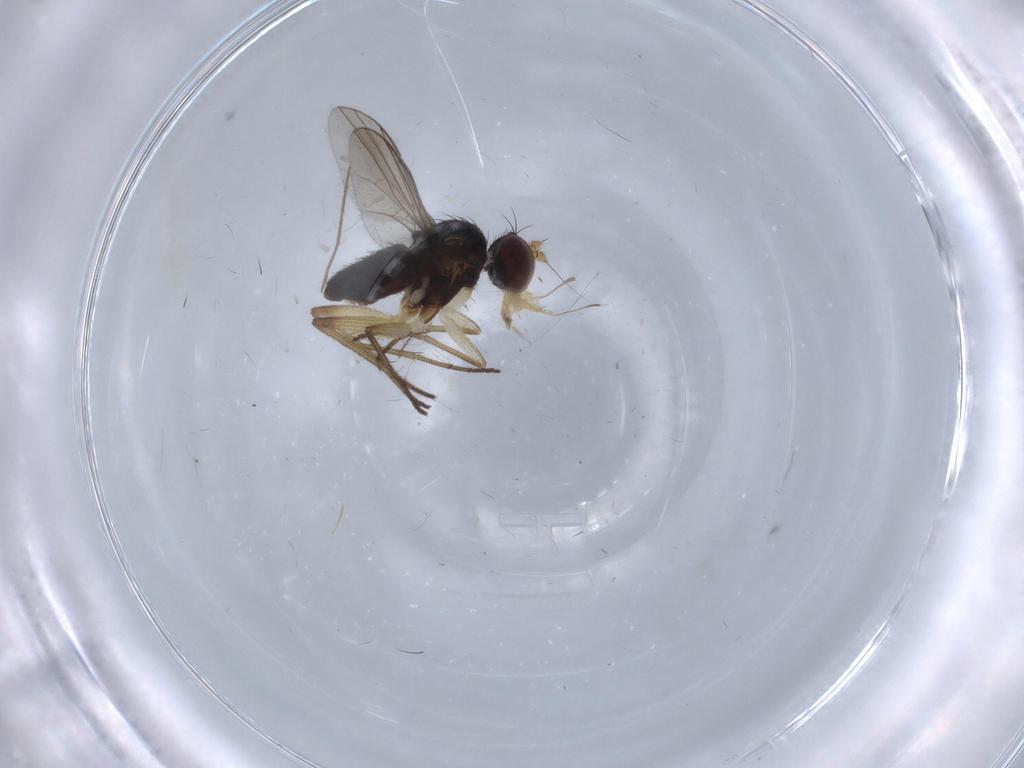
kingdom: Animalia
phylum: Arthropoda
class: Insecta
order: Diptera
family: Dolichopodidae
